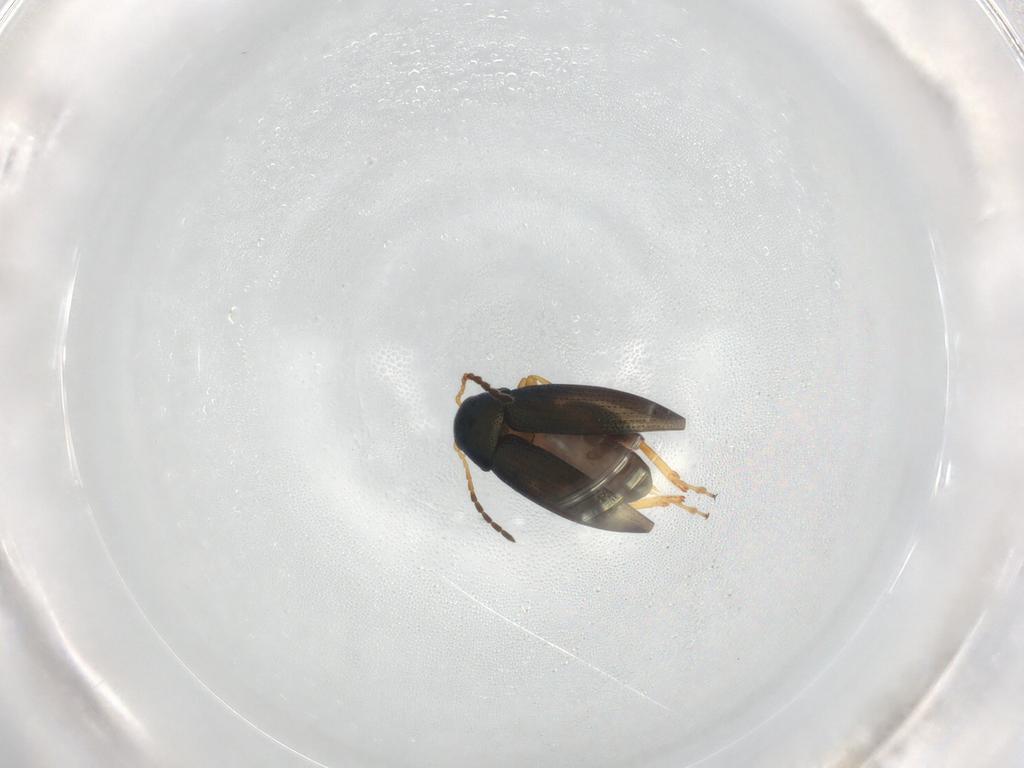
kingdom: Animalia
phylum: Arthropoda
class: Insecta
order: Coleoptera
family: Chrysomelidae
